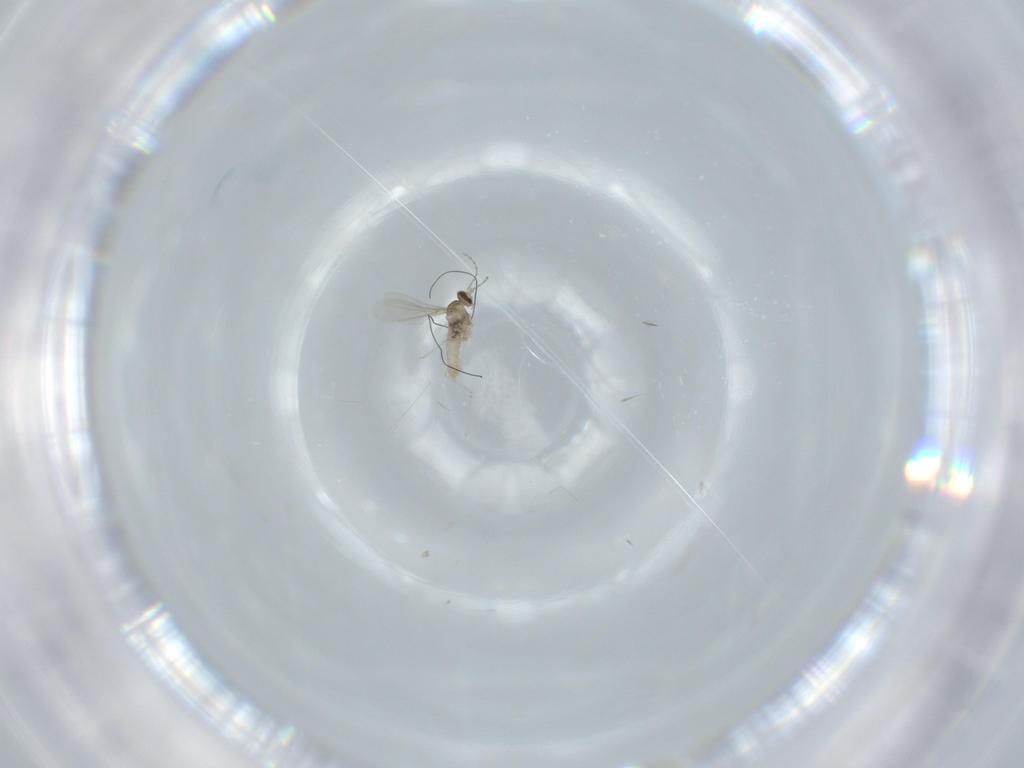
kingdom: Animalia
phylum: Arthropoda
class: Insecta
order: Diptera
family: Cecidomyiidae
